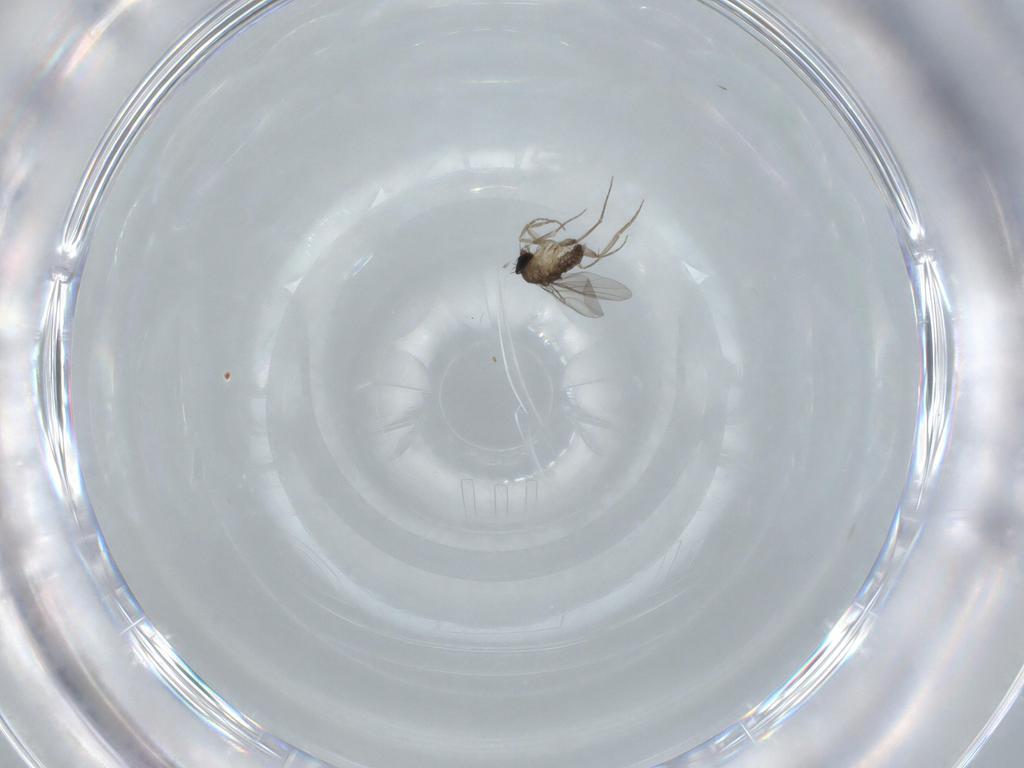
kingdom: Animalia
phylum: Arthropoda
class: Insecta
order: Diptera
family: Phoridae
